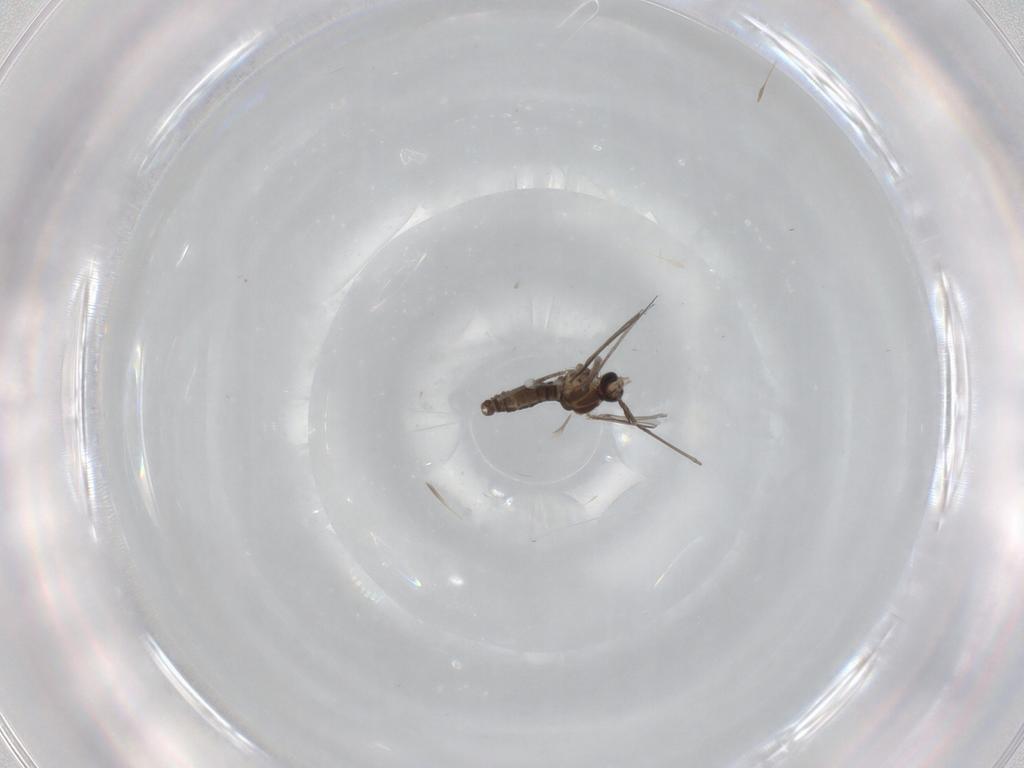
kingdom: Animalia
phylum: Arthropoda
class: Insecta
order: Diptera
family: Cecidomyiidae
